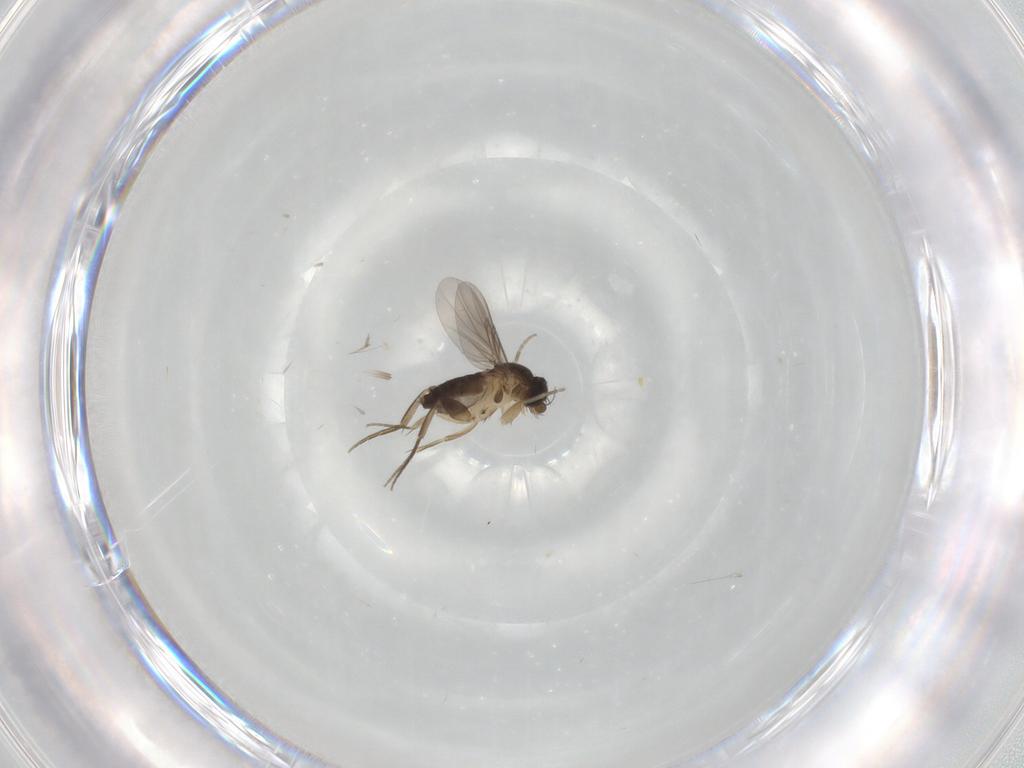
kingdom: Animalia
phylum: Arthropoda
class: Insecta
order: Diptera
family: Phoridae
